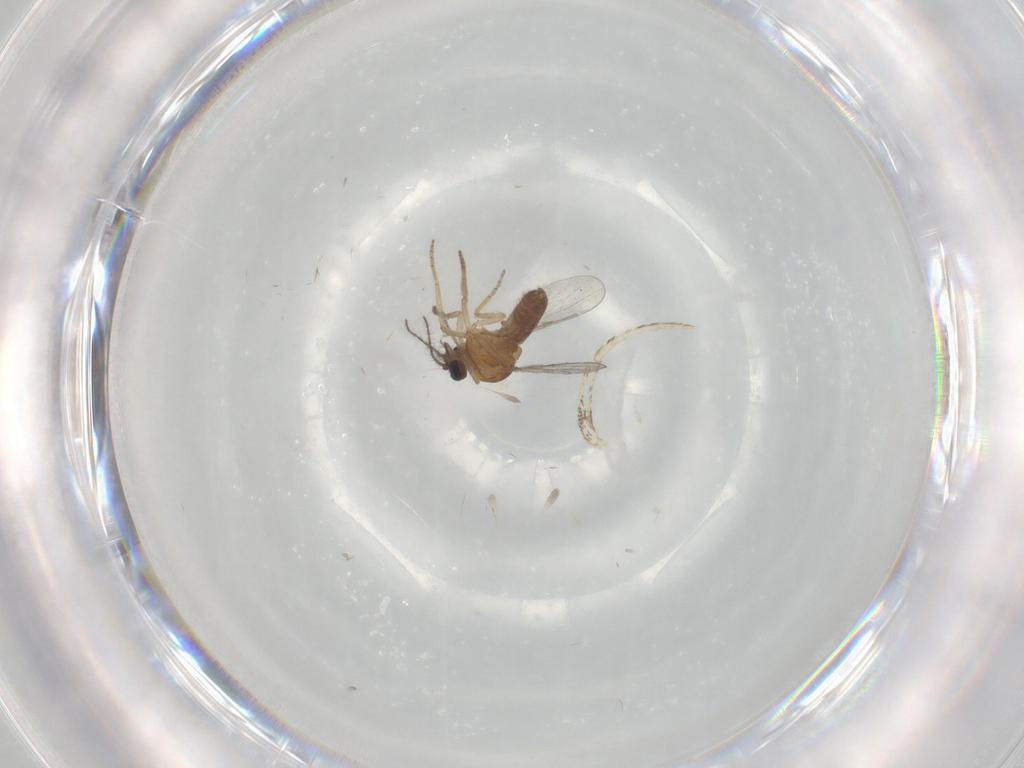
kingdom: Animalia
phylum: Arthropoda
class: Insecta
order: Diptera
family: Ceratopogonidae
